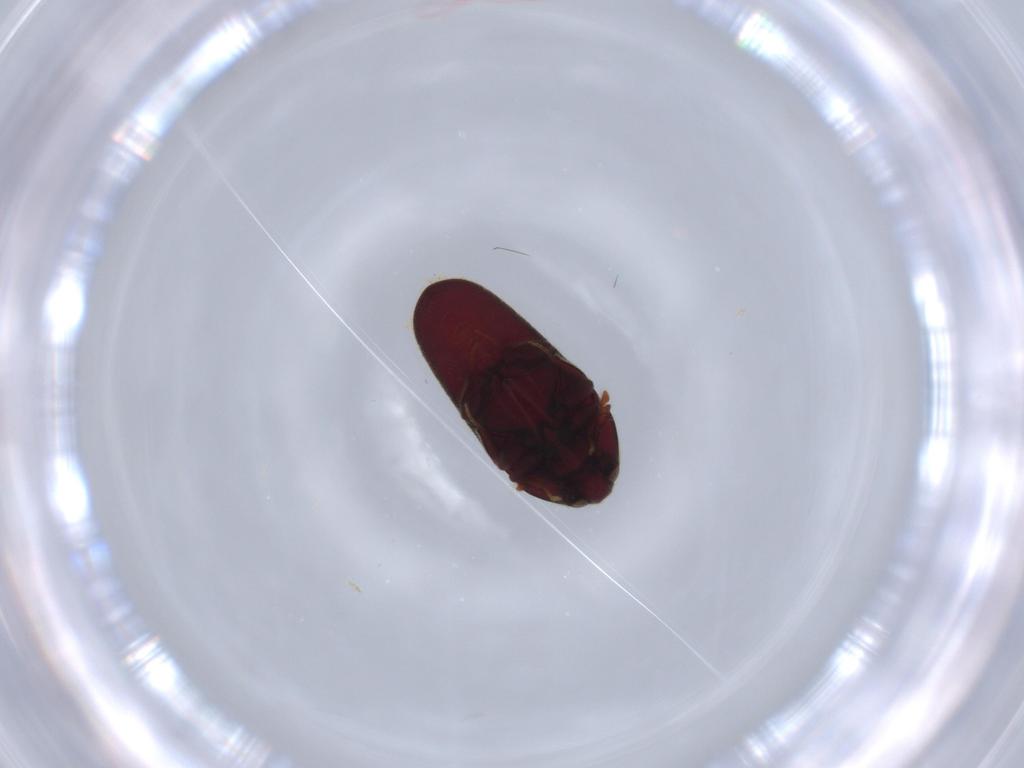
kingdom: Animalia
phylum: Arthropoda
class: Insecta
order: Coleoptera
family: Throscidae
